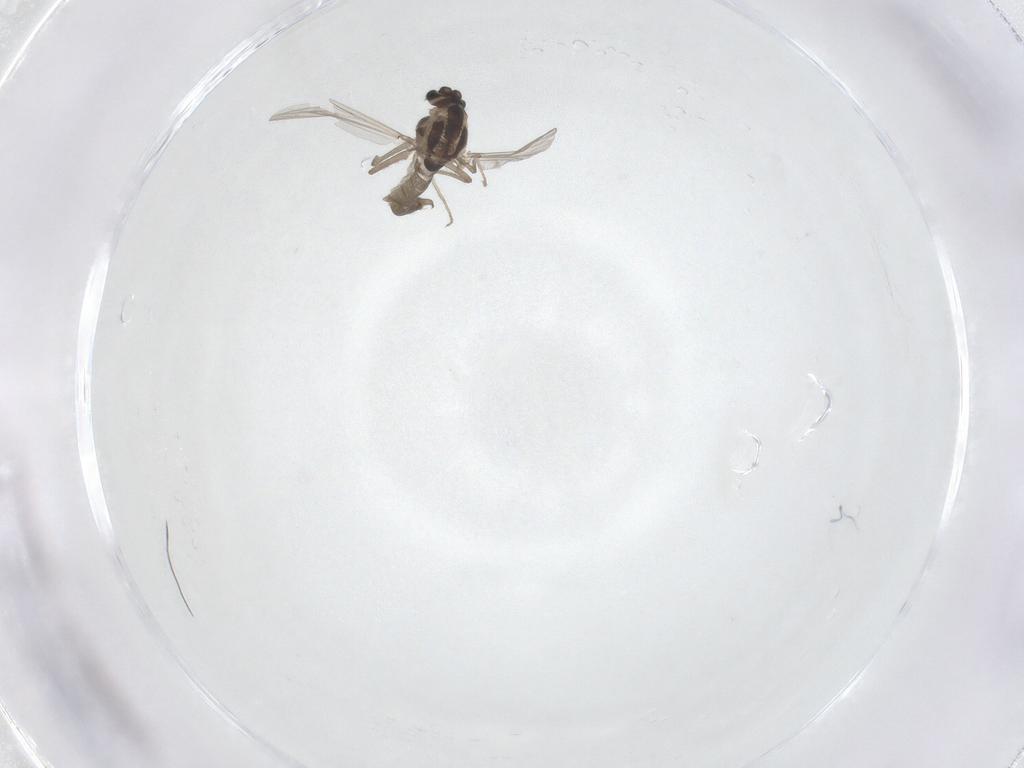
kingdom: Animalia
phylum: Arthropoda
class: Insecta
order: Diptera
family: Chironomidae
